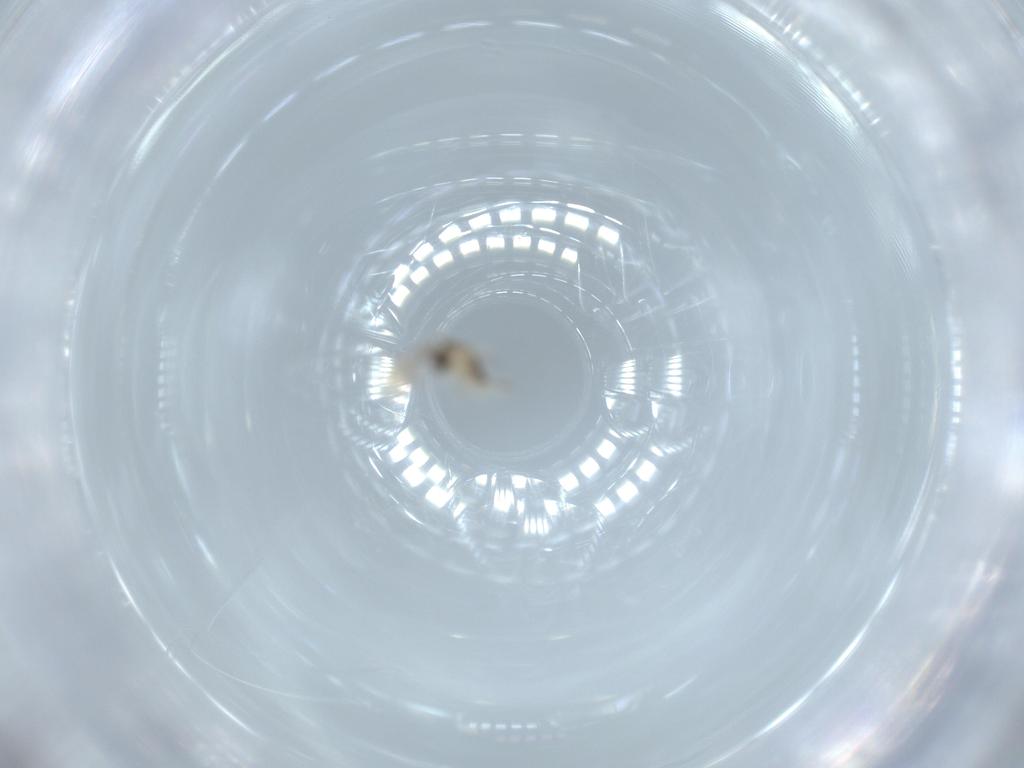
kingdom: Animalia
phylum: Arthropoda
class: Insecta
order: Diptera
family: Cecidomyiidae
